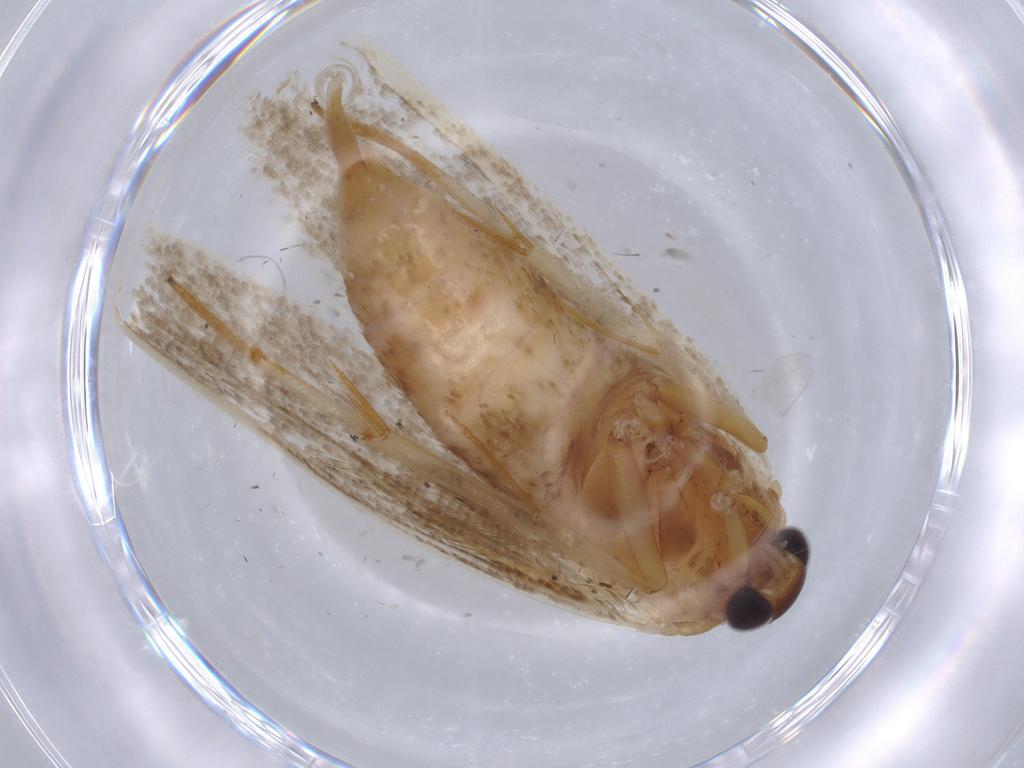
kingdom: Animalia
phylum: Arthropoda
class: Insecta
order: Lepidoptera
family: Blastobasidae
